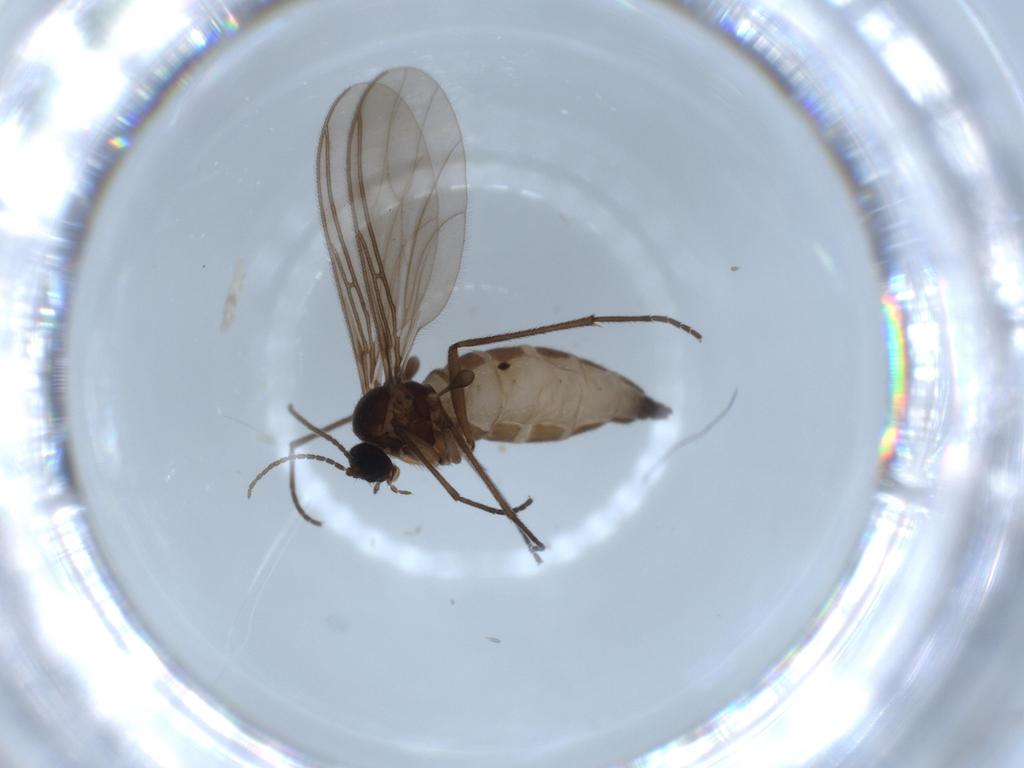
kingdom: Animalia
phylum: Arthropoda
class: Insecta
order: Diptera
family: Sciaridae
